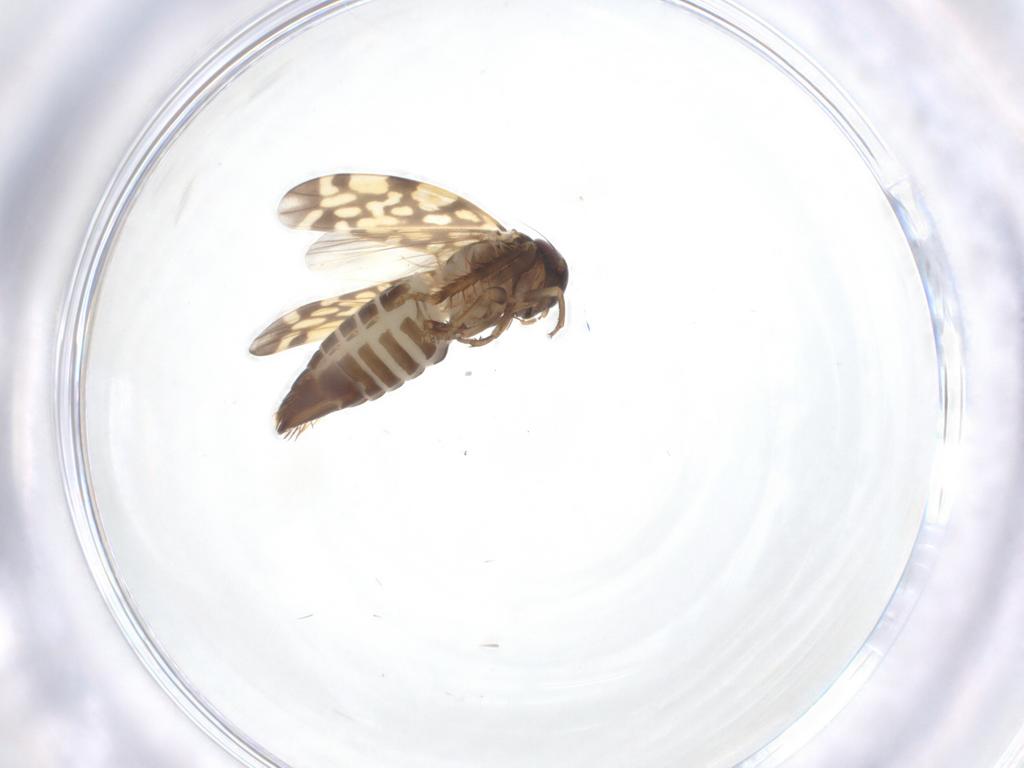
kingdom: Animalia
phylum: Arthropoda
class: Insecta
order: Hemiptera
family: Cicadellidae
